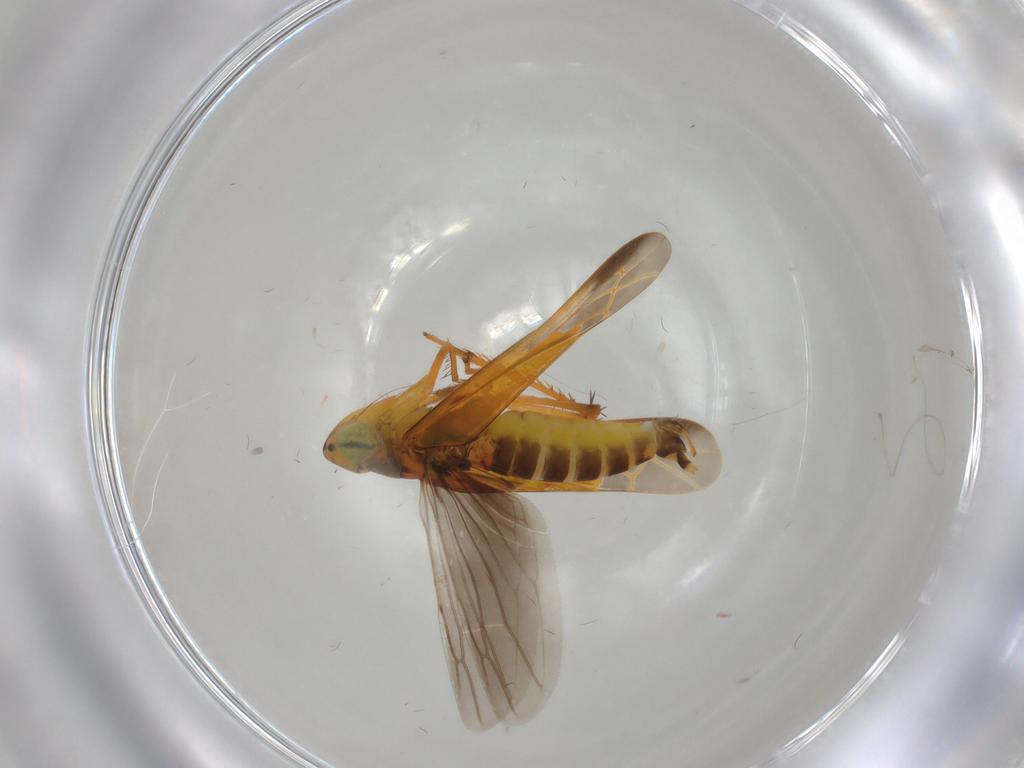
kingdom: Animalia
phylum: Arthropoda
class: Insecta
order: Hemiptera
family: Cicadellidae
